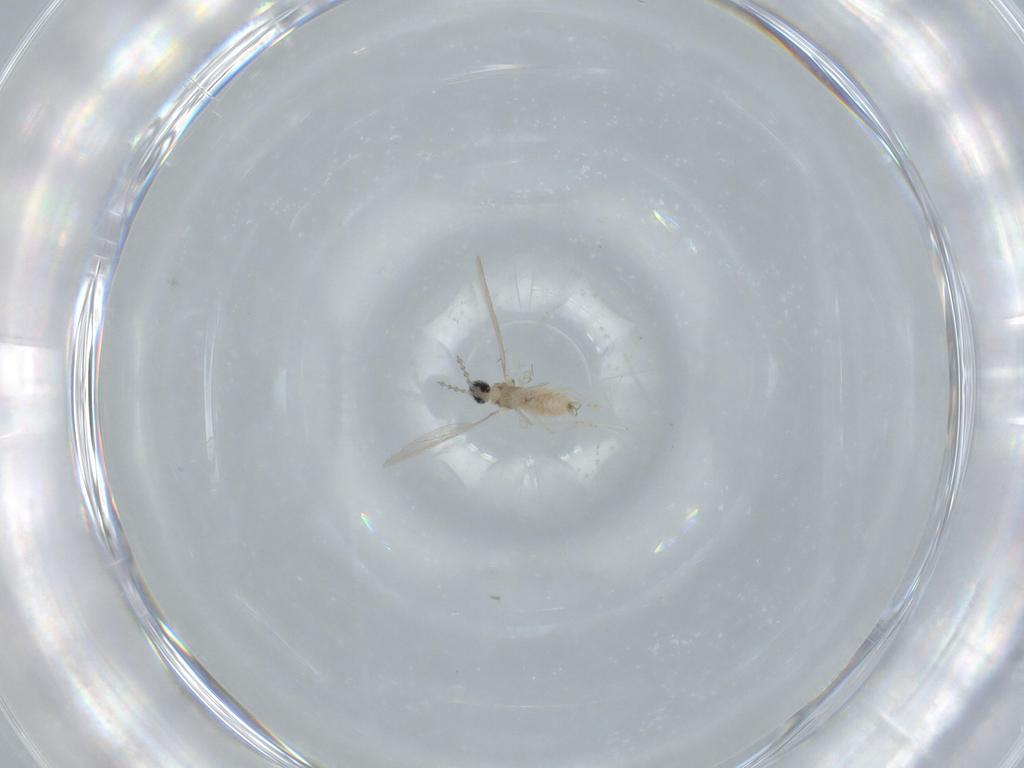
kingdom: Animalia
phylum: Arthropoda
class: Insecta
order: Diptera
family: Cecidomyiidae
